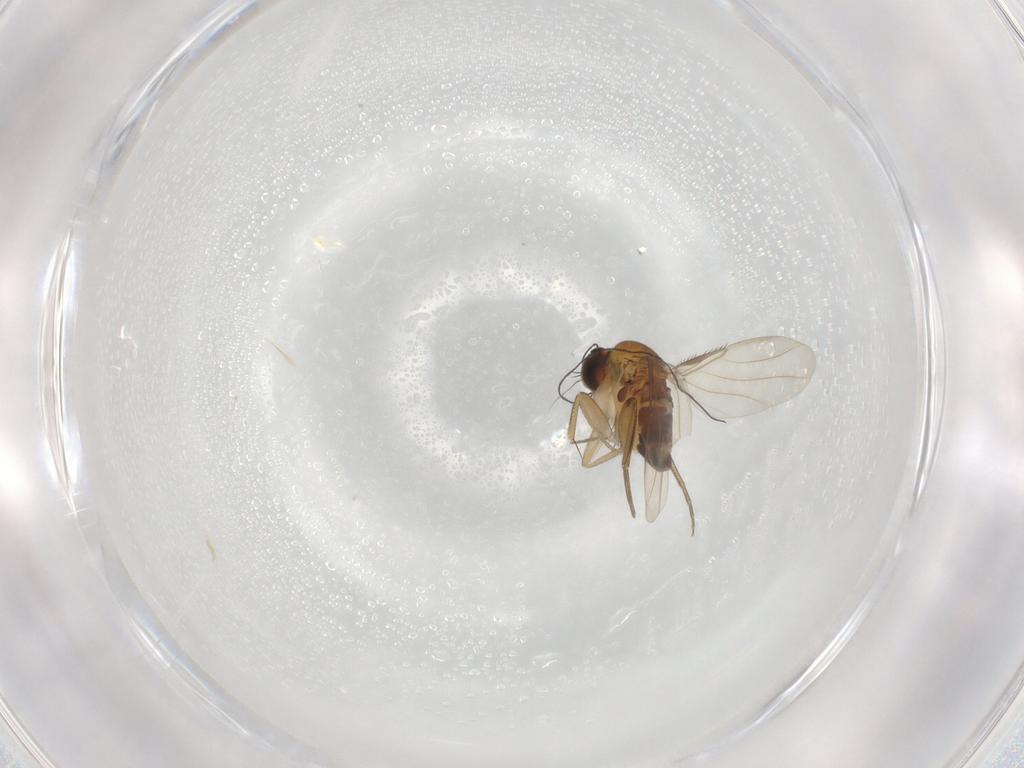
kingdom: Animalia
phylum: Arthropoda
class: Insecta
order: Diptera
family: Phoridae
